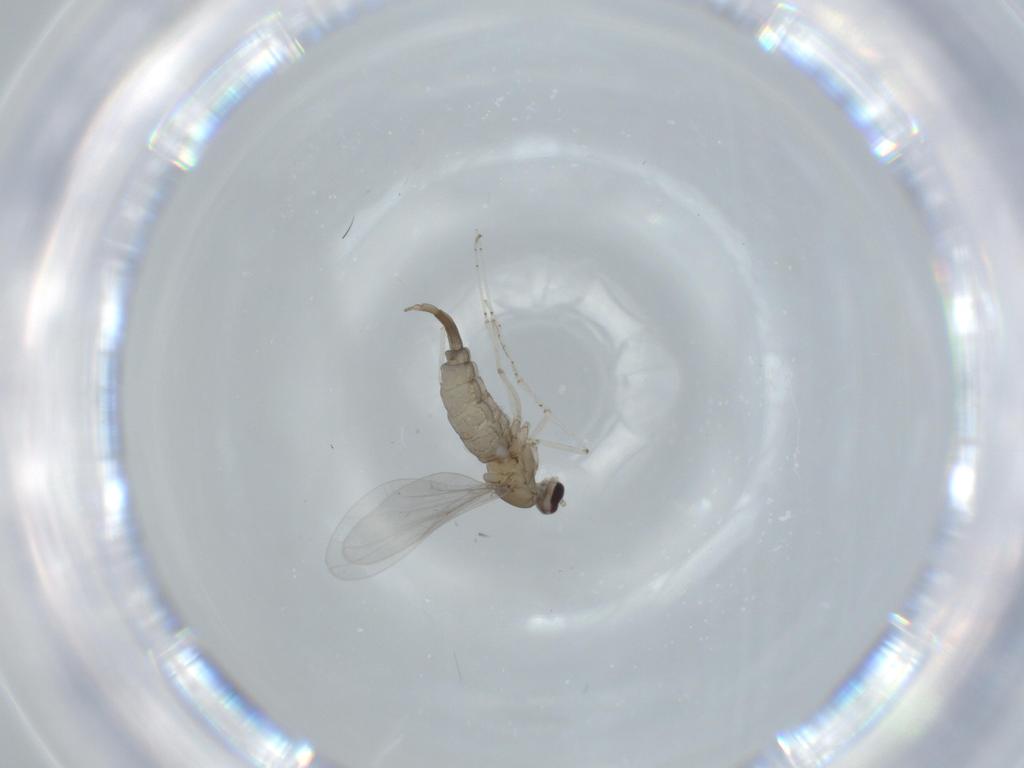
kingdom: Animalia
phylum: Arthropoda
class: Insecta
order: Diptera
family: Cecidomyiidae
